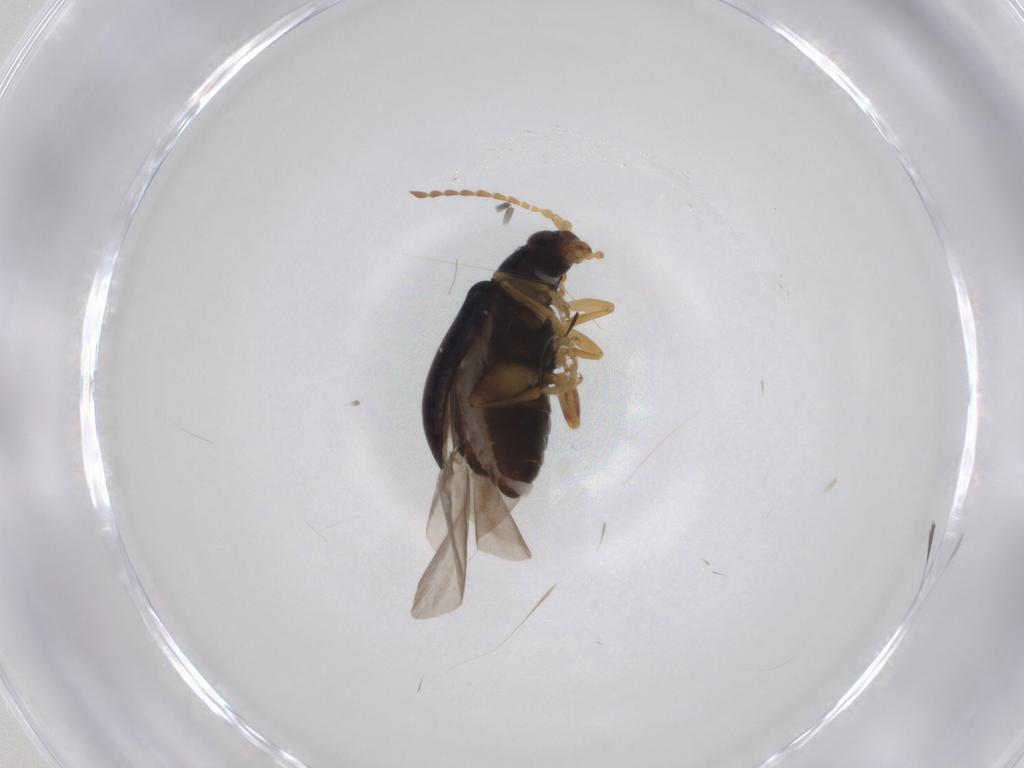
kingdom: Animalia
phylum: Arthropoda
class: Insecta
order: Coleoptera
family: Chrysomelidae
